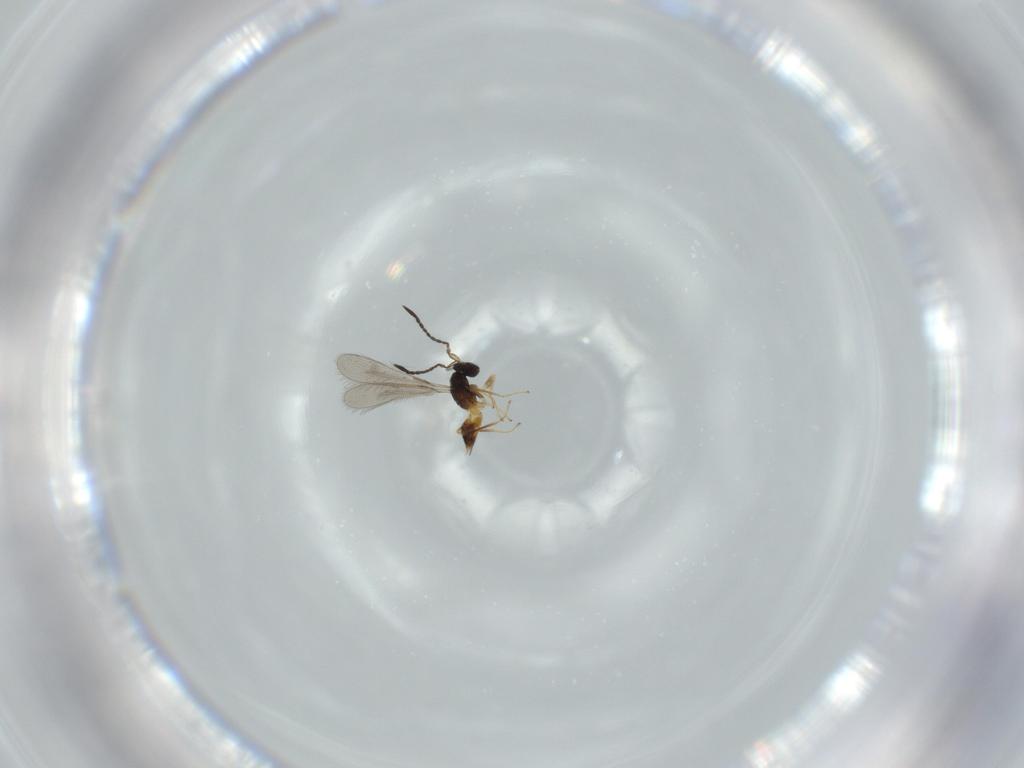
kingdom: Animalia
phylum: Arthropoda
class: Insecta
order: Hymenoptera
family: Mymaridae
